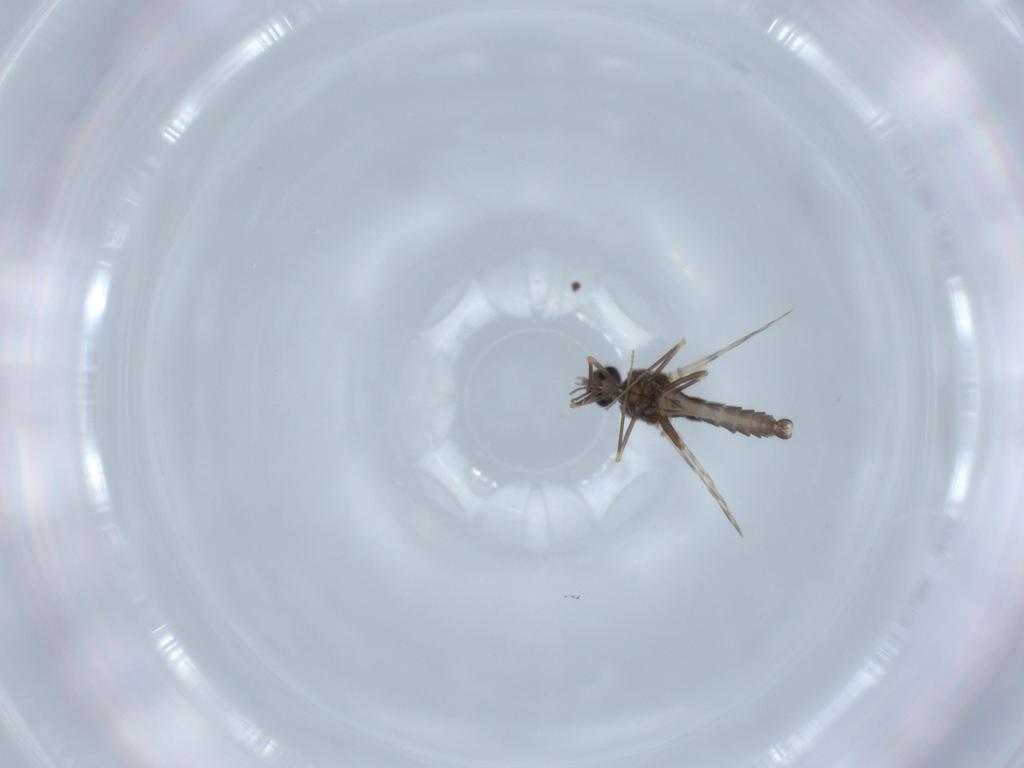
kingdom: Animalia
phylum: Arthropoda
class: Insecta
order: Diptera
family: Ceratopogonidae
